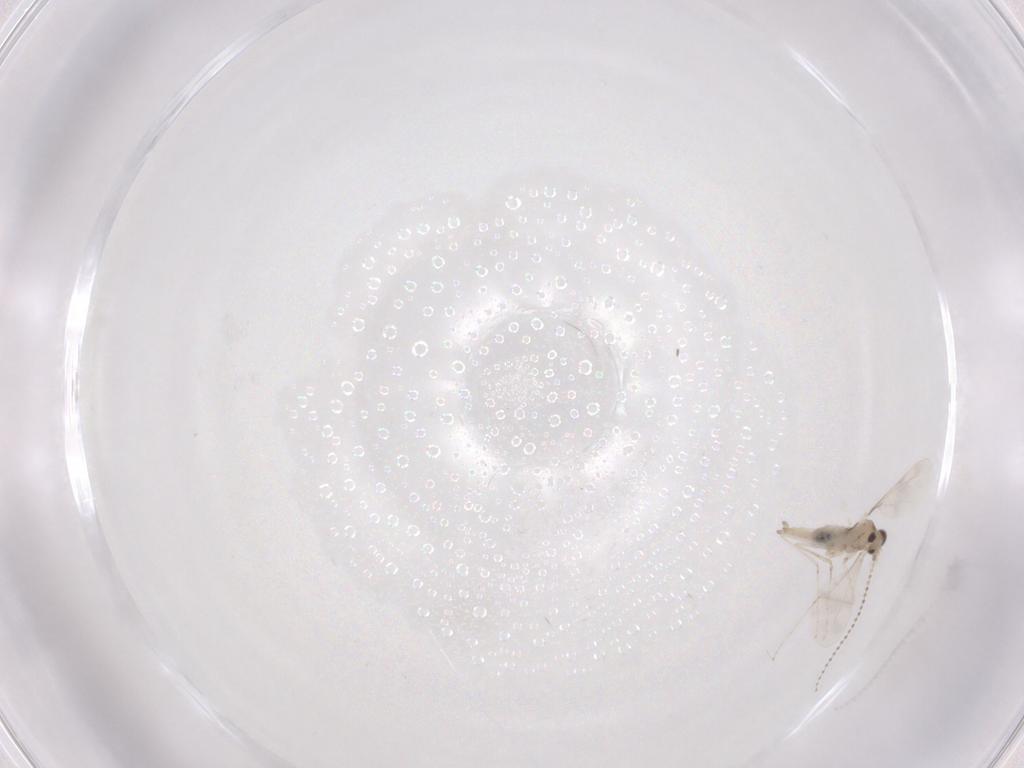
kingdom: Animalia
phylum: Arthropoda
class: Insecta
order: Diptera
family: Cecidomyiidae
